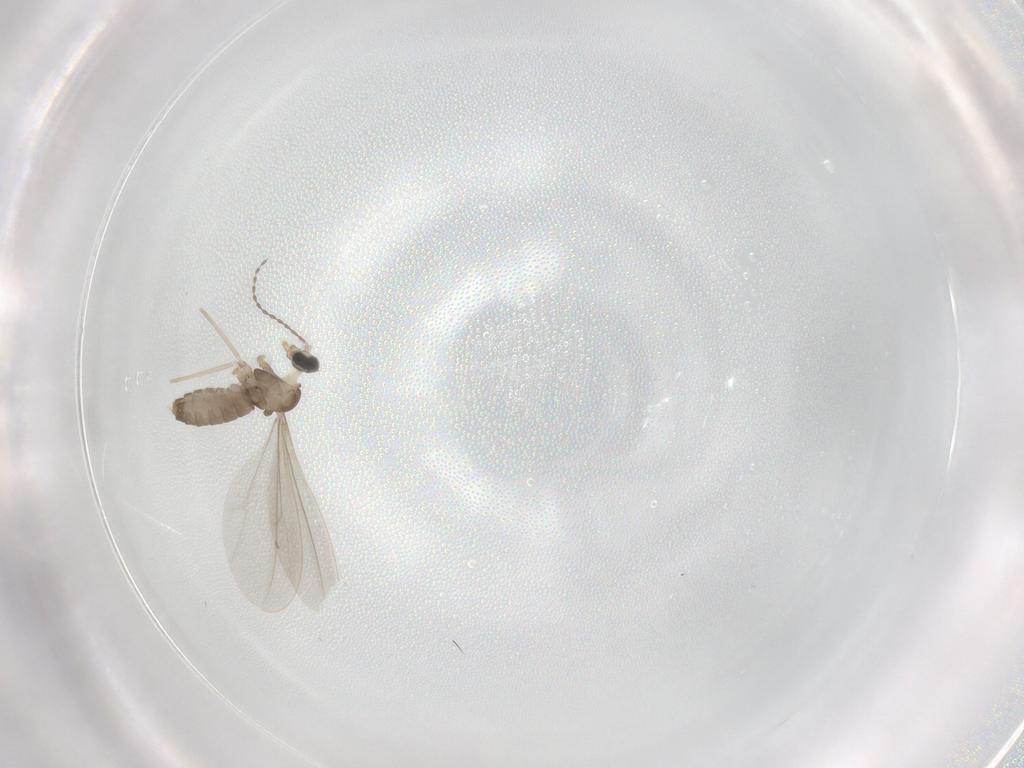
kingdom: Animalia
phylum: Arthropoda
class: Insecta
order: Diptera
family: Cecidomyiidae
